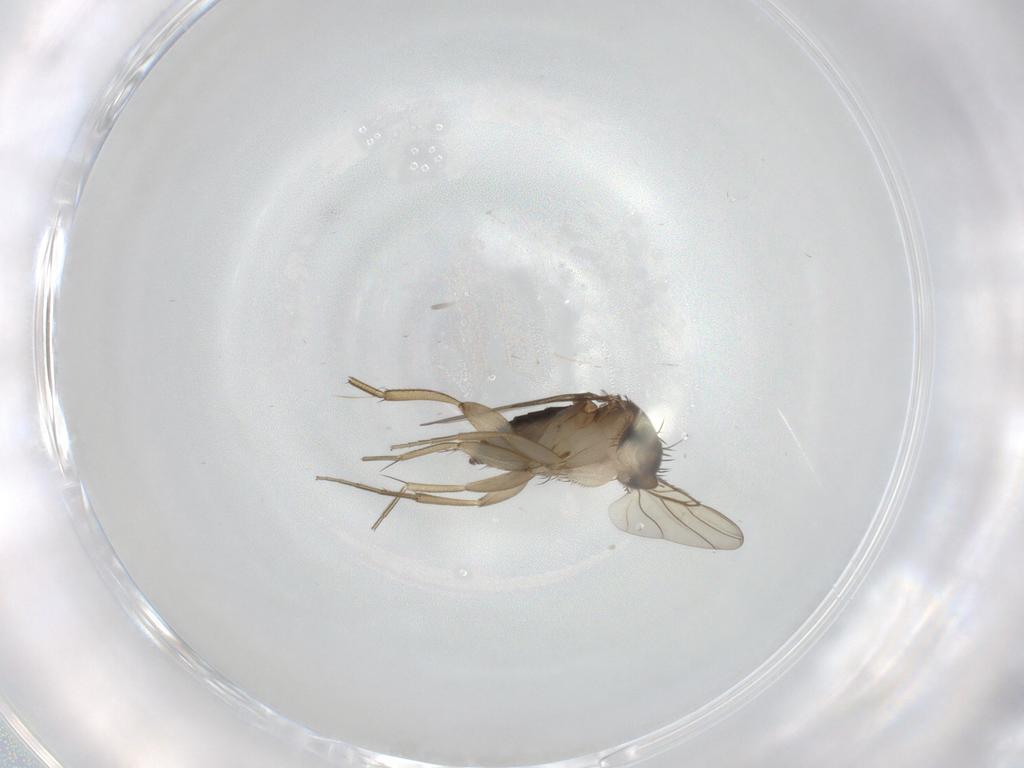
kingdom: Animalia
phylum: Arthropoda
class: Insecta
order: Diptera
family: Phoridae
